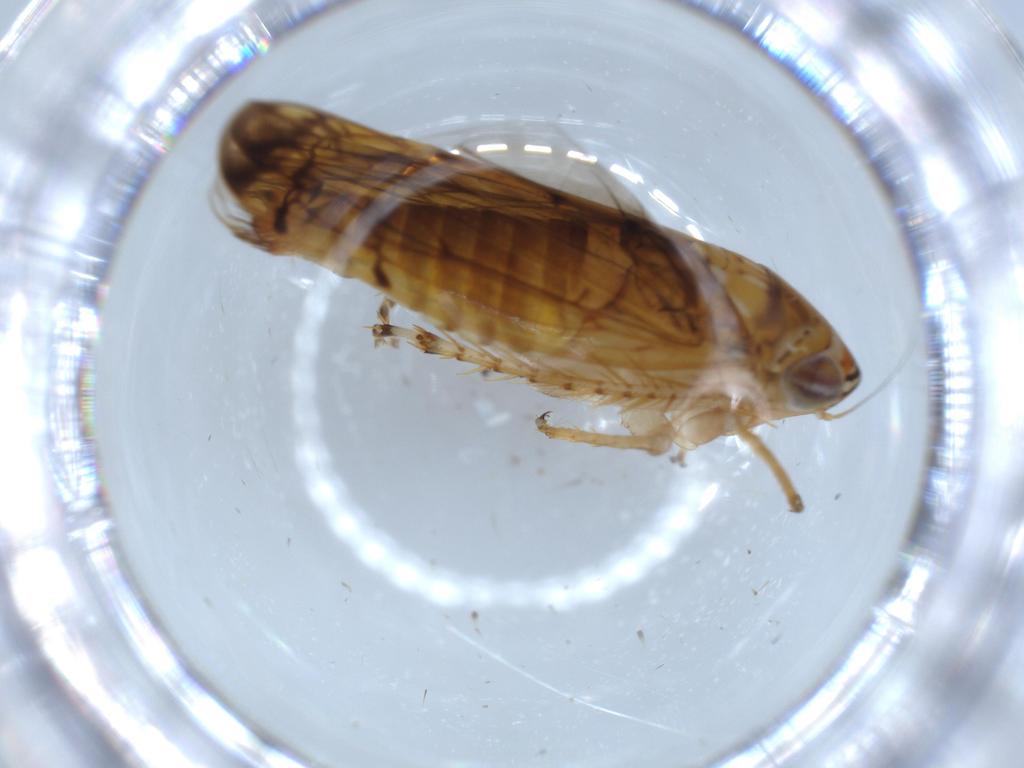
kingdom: Animalia
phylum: Arthropoda
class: Insecta
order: Hemiptera
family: Cicadellidae
